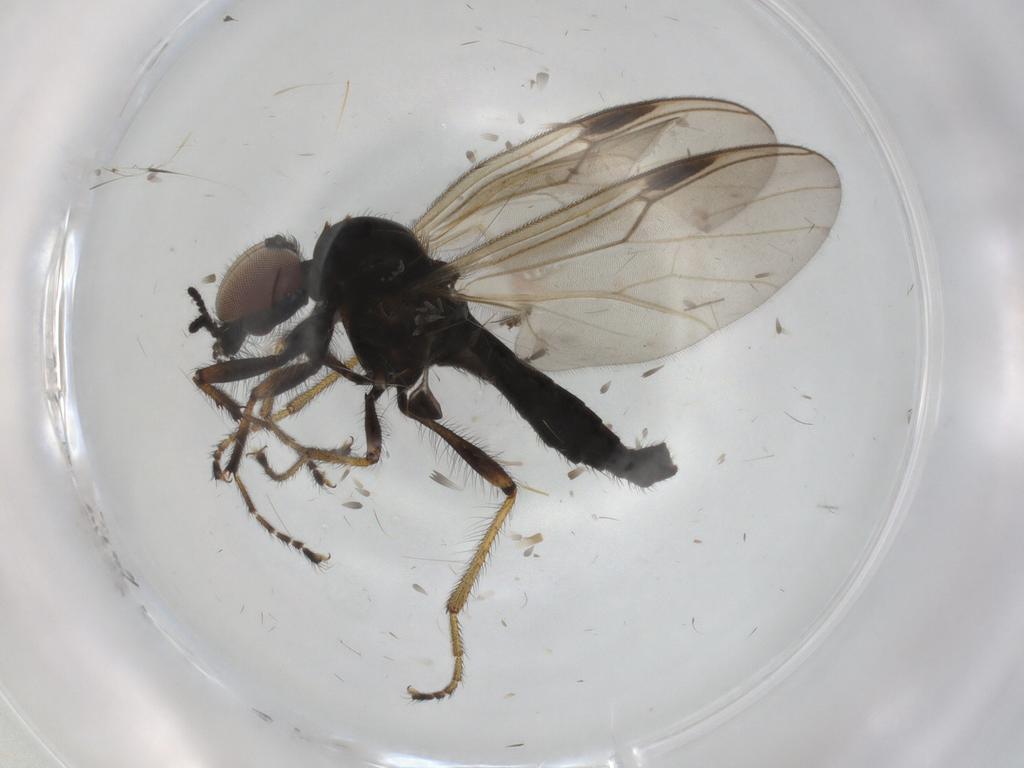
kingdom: Animalia
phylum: Arthropoda
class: Insecta
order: Diptera
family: Bibionidae
